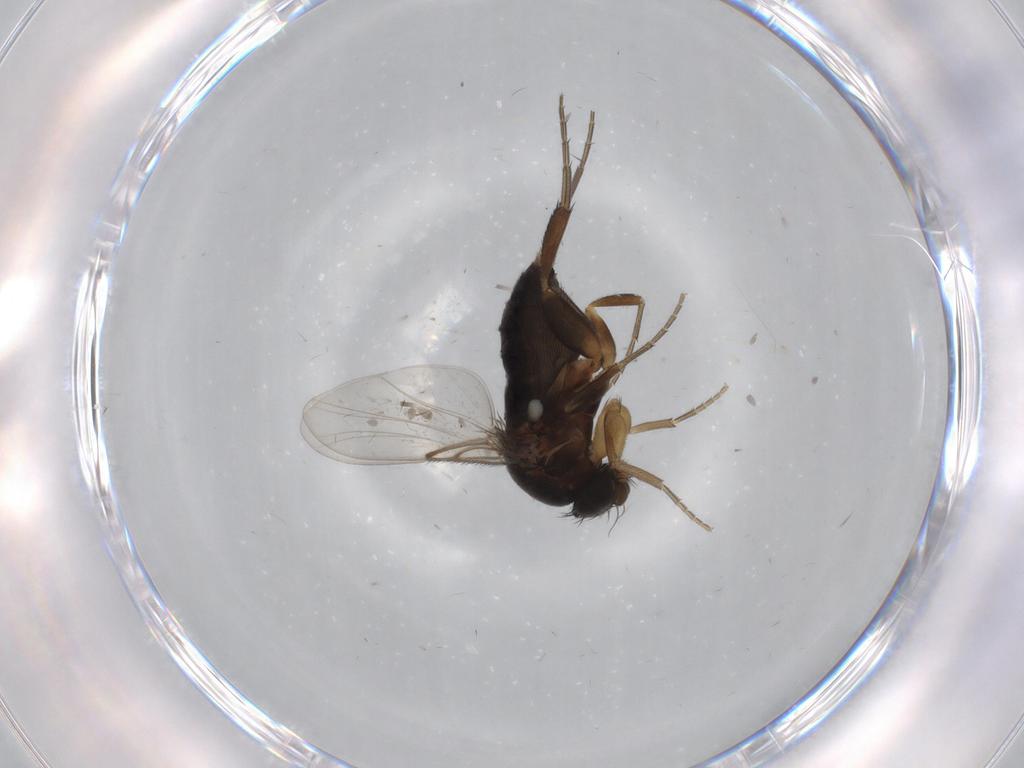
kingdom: Animalia
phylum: Arthropoda
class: Insecta
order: Diptera
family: Phoridae
